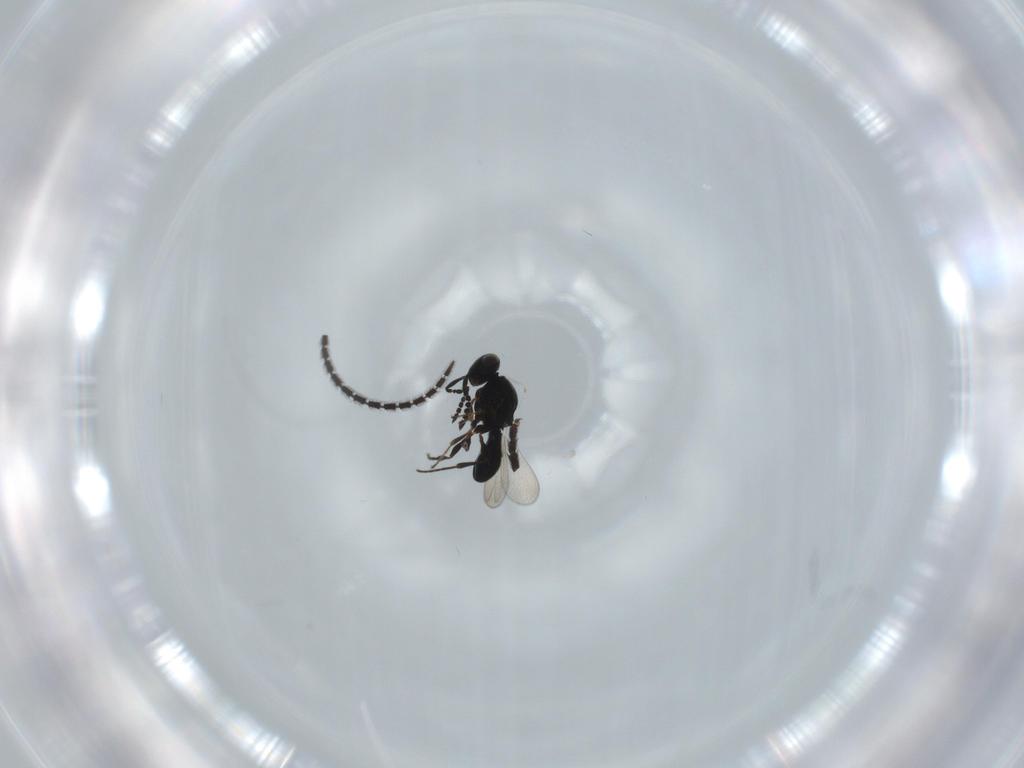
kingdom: Animalia
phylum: Arthropoda
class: Insecta
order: Hymenoptera
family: Platygastridae
